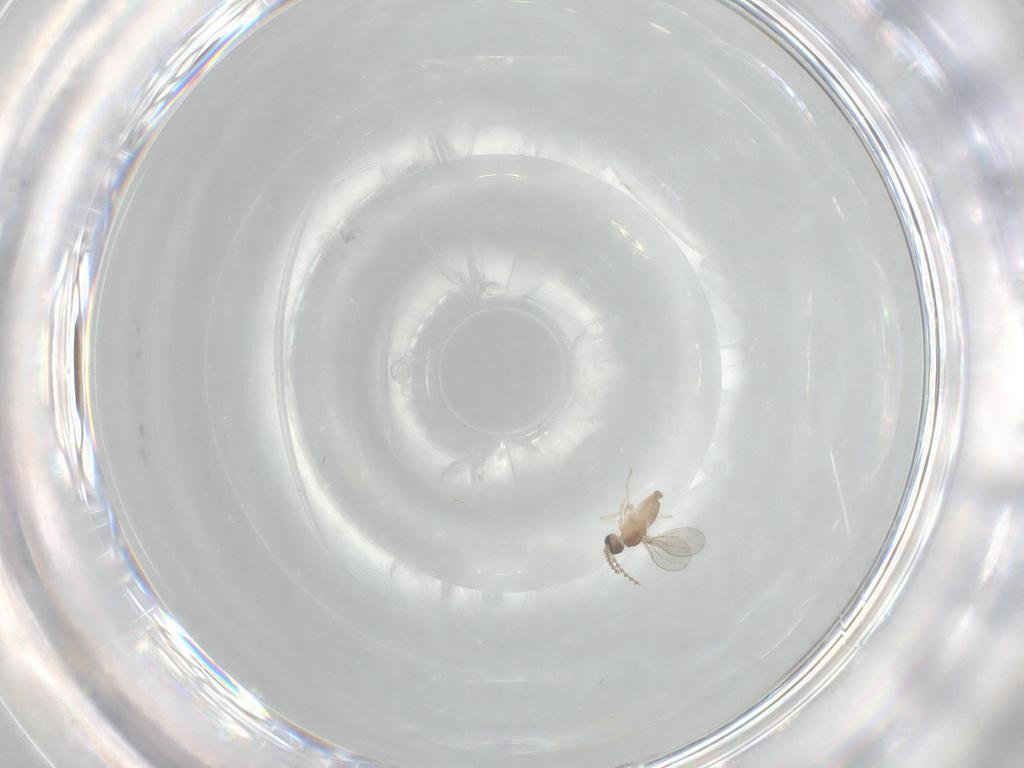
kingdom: Animalia
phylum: Arthropoda
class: Insecta
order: Diptera
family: Cecidomyiidae
